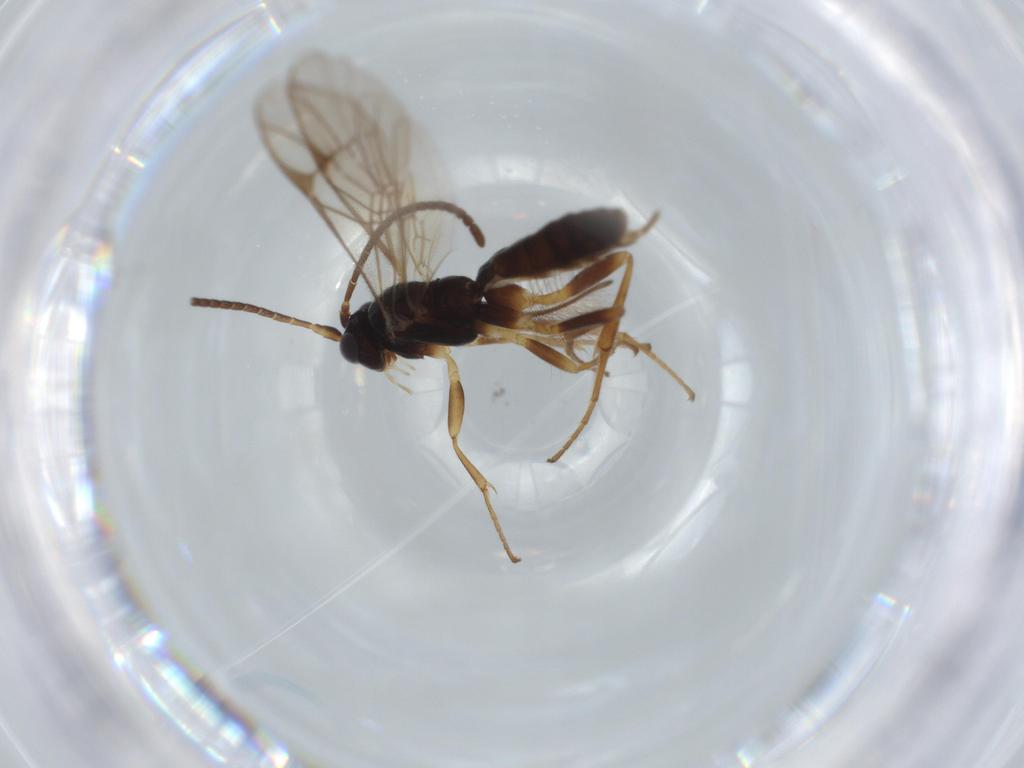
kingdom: Animalia
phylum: Arthropoda
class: Insecta
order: Hymenoptera
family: Ichneumonidae
